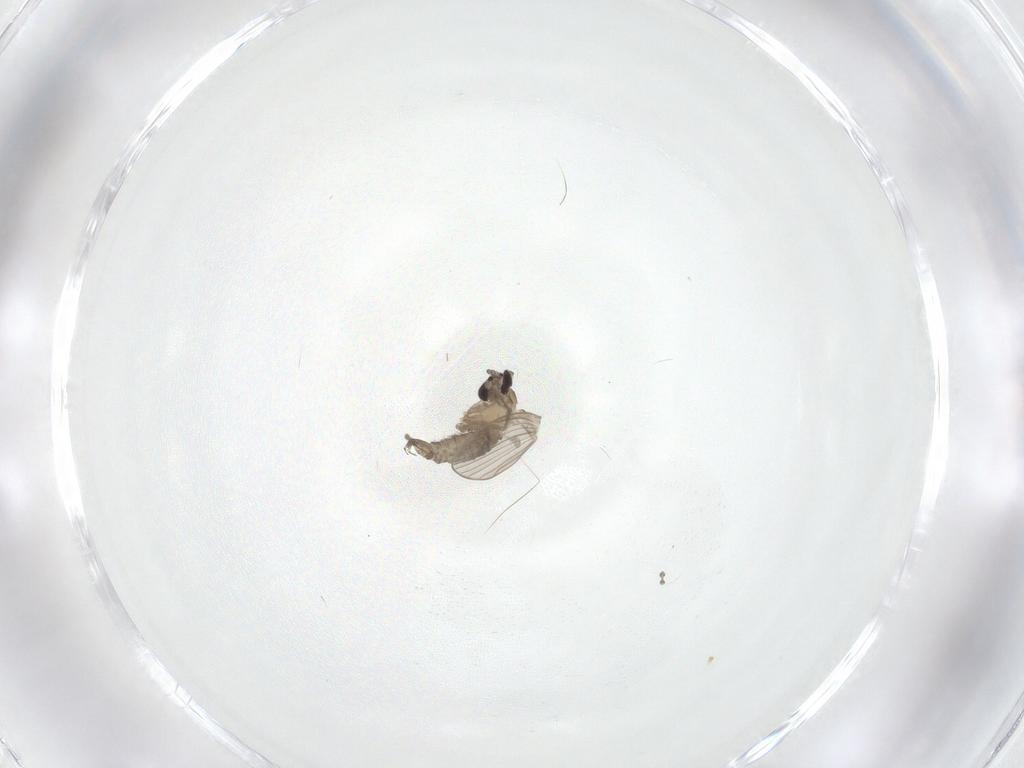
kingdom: Animalia
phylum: Arthropoda
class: Insecta
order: Diptera
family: Psychodidae
